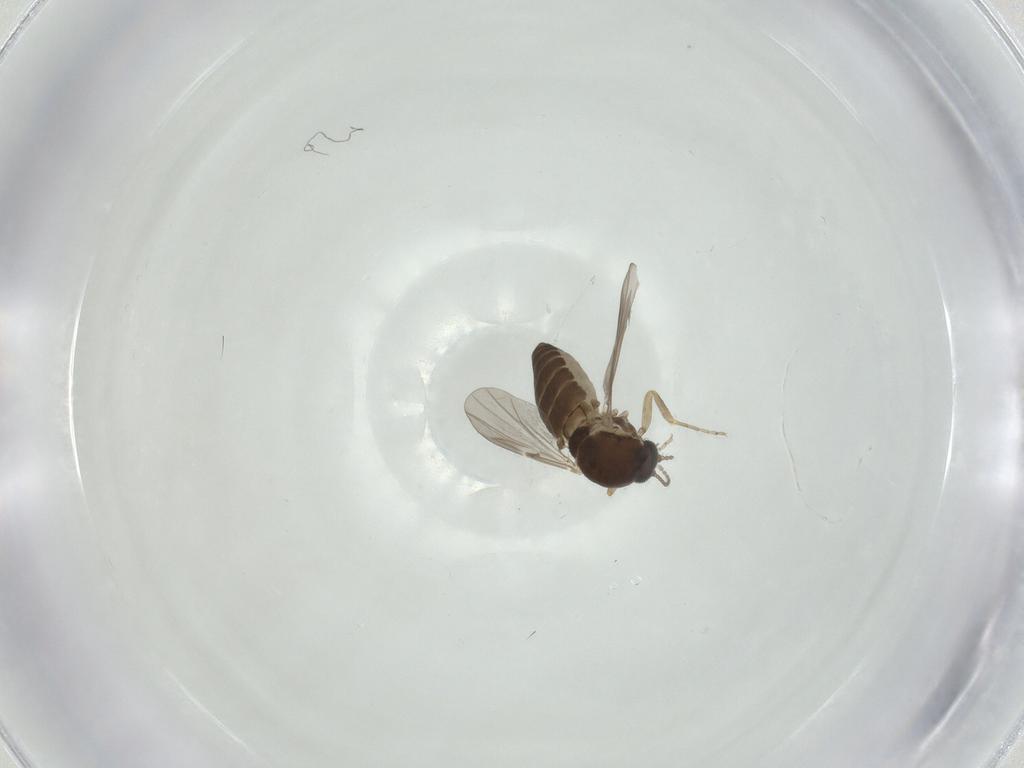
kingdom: Animalia
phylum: Arthropoda
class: Insecta
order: Diptera
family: Ceratopogonidae
